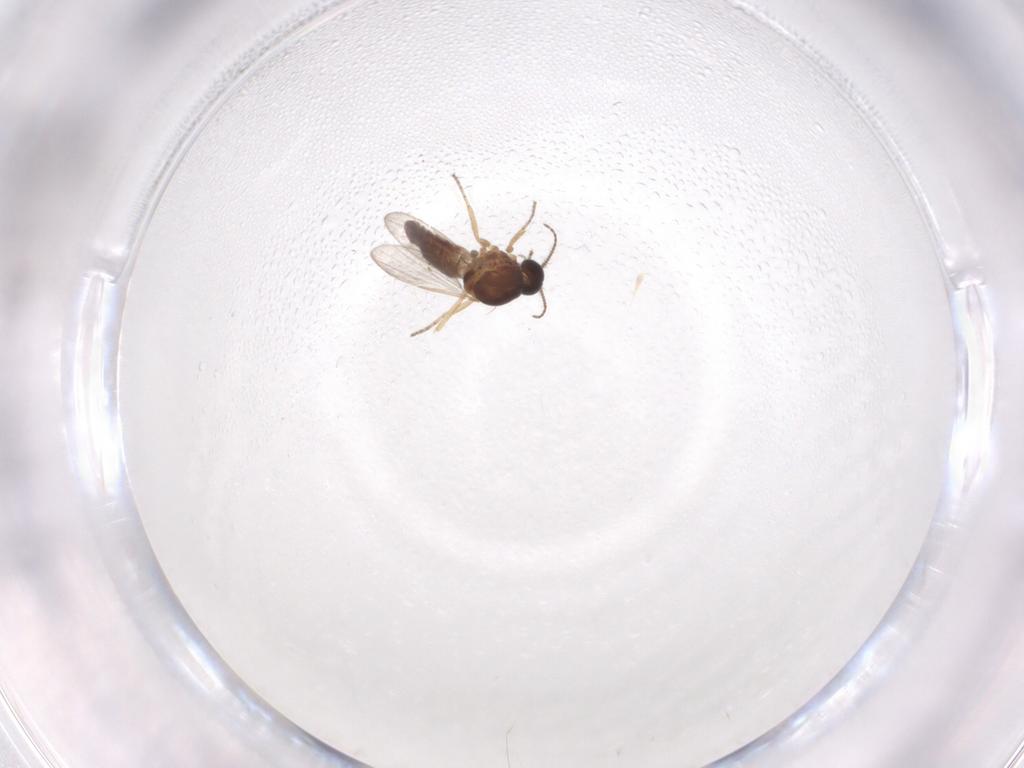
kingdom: Animalia
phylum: Arthropoda
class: Insecta
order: Diptera
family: Ceratopogonidae
